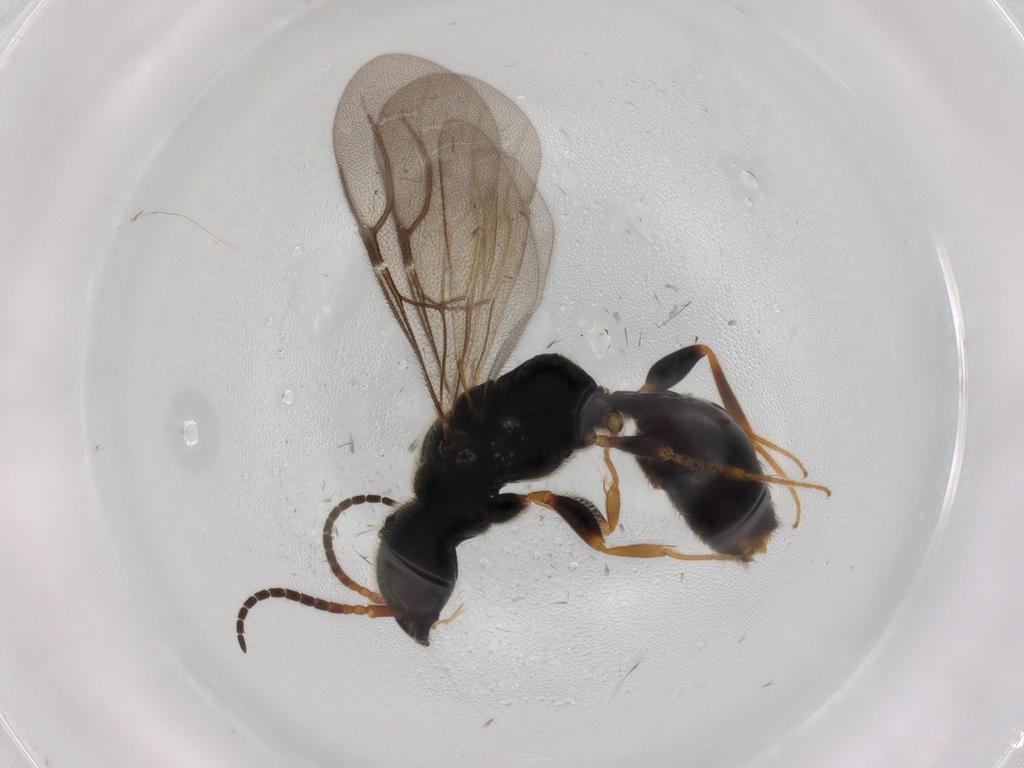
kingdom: Animalia
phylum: Arthropoda
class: Insecta
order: Hymenoptera
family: Bethylidae
